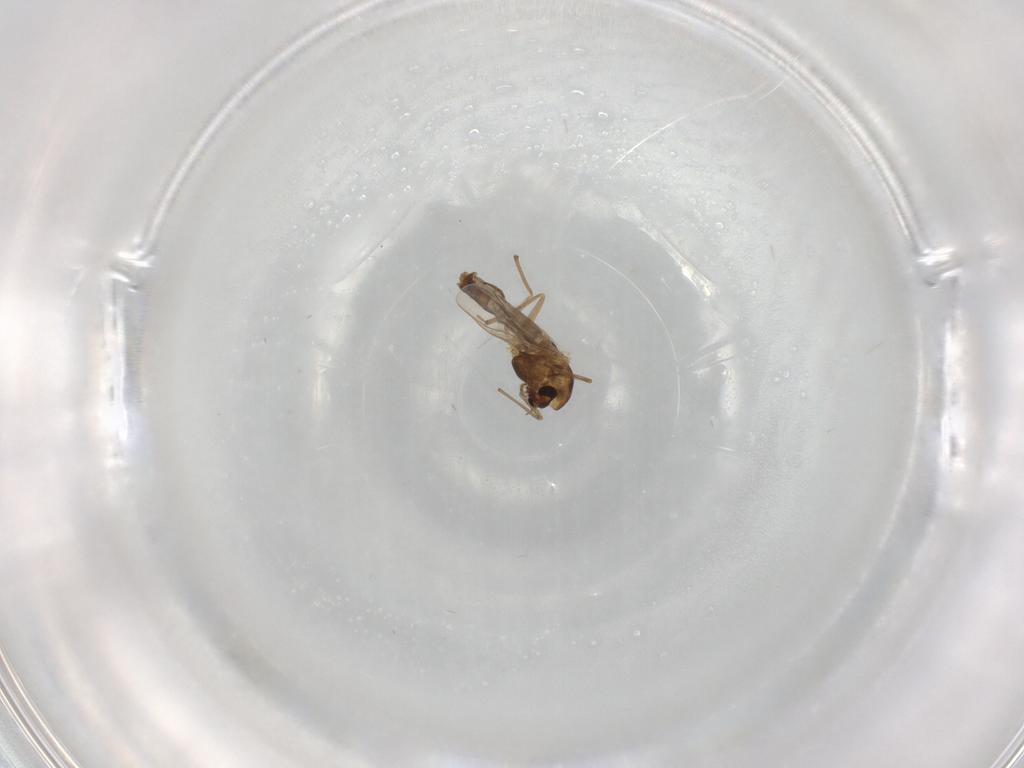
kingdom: Animalia
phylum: Arthropoda
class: Insecta
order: Diptera
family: Chironomidae
